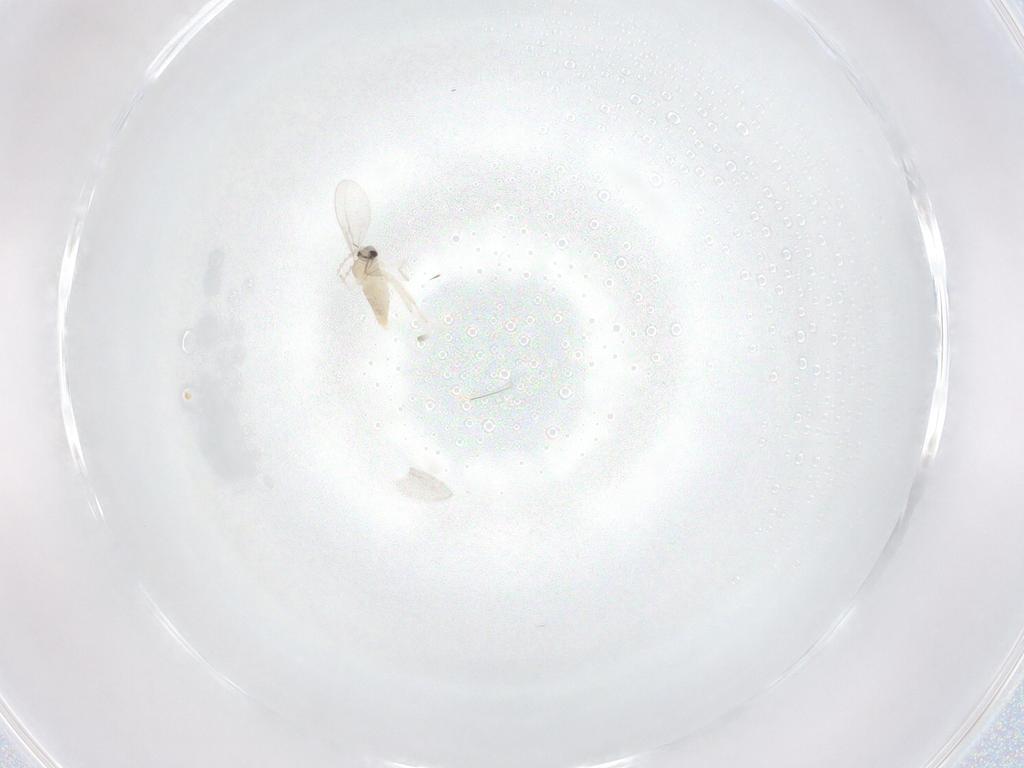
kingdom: Animalia
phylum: Arthropoda
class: Insecta
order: Diptera
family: Cecidomyiidae
